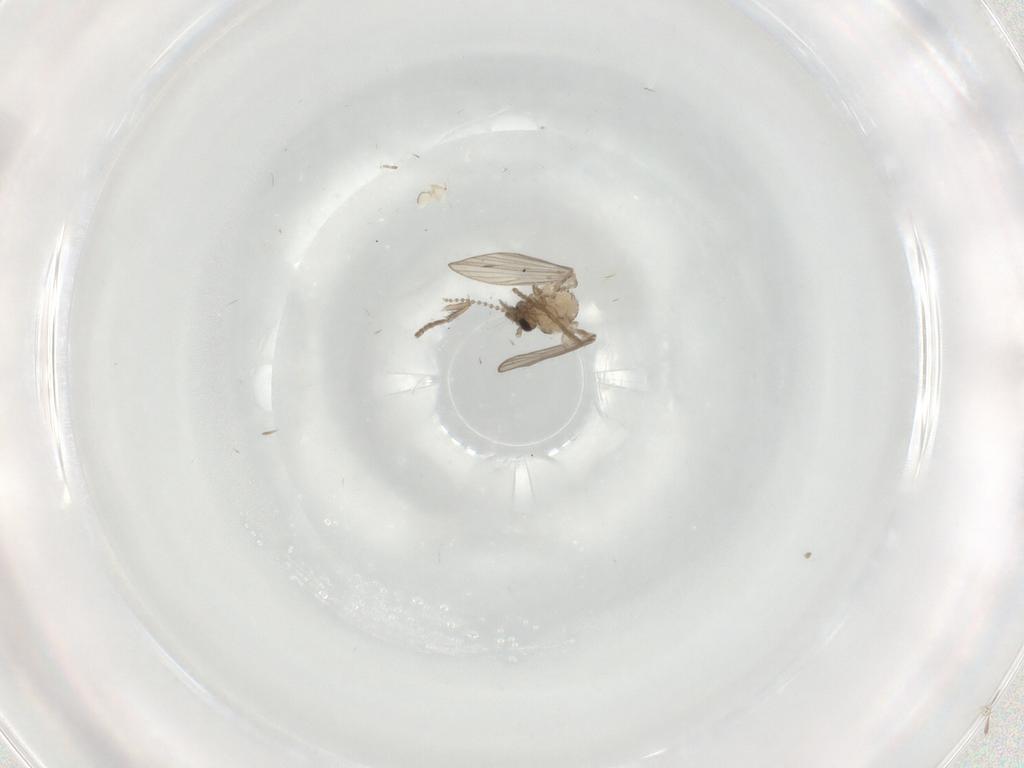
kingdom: Animalia
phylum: Arthropoda
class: Insecta
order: Diptera
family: Psychodidae
